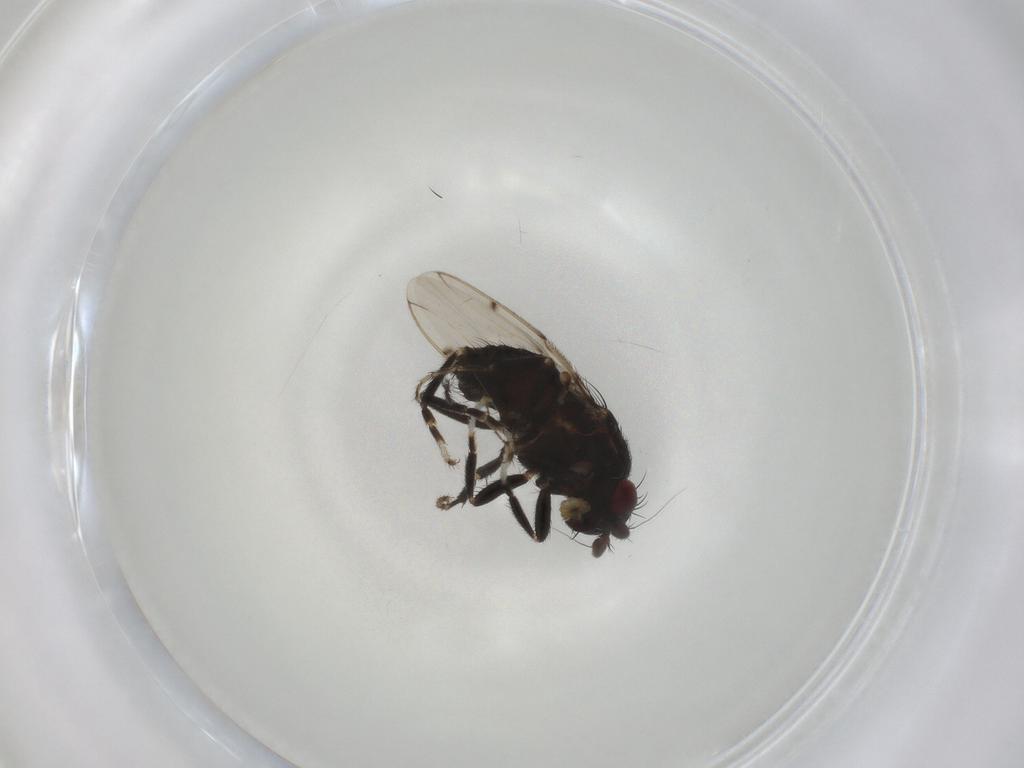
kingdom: Animalia
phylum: Arthropoda
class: Insecta
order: Diptera
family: Sphaeroceridae
